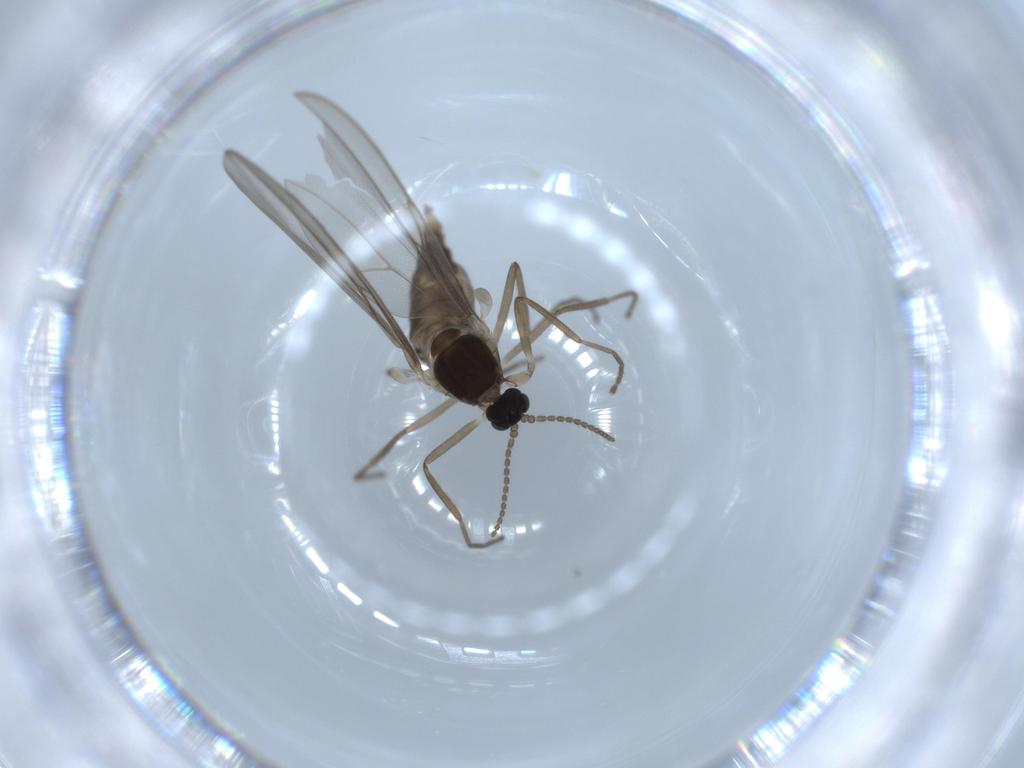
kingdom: Animalia
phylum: Arthropoda
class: Insecta
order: Diptera
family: Cecidomyiidae
